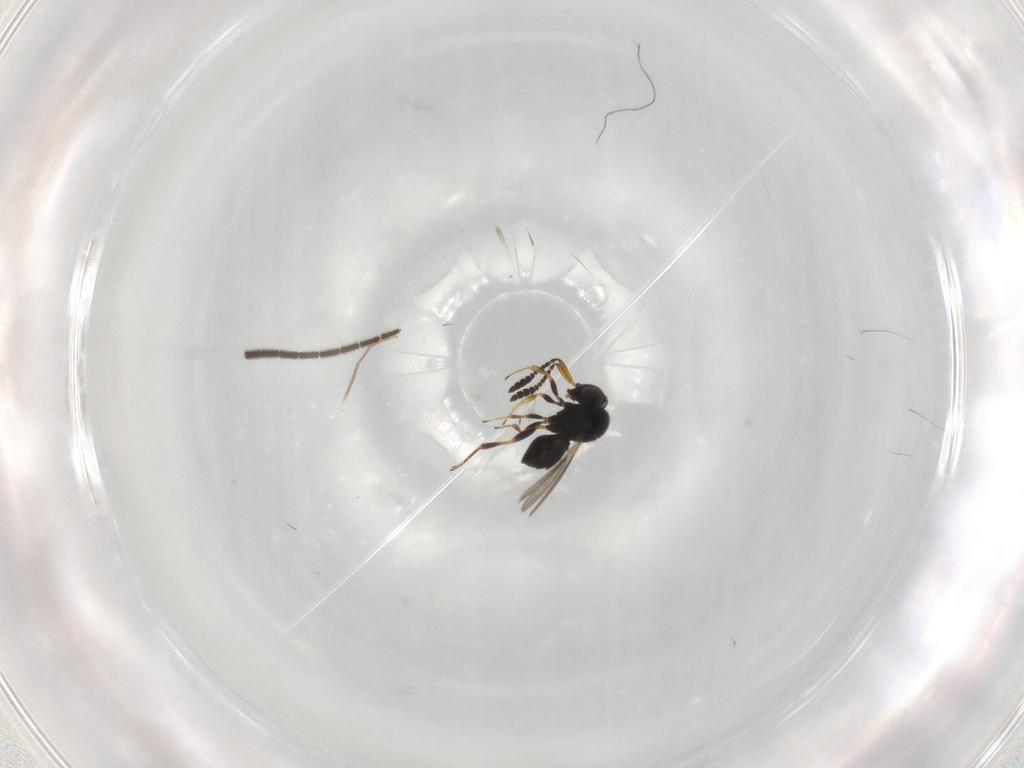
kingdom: Animalia
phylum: Arthropoda
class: Insecta
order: Hymenoptera
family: Scelionidae
